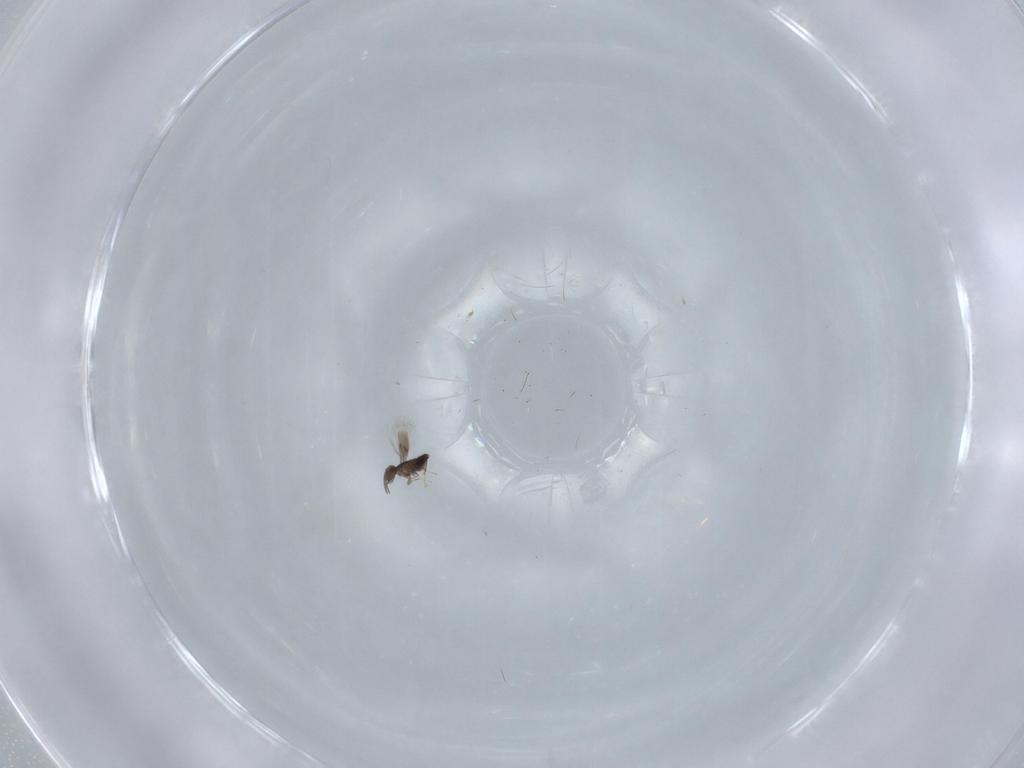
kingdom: Animalia
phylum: Arthropoda
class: Insecta
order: Hymenoptera
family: Signiphoridae
